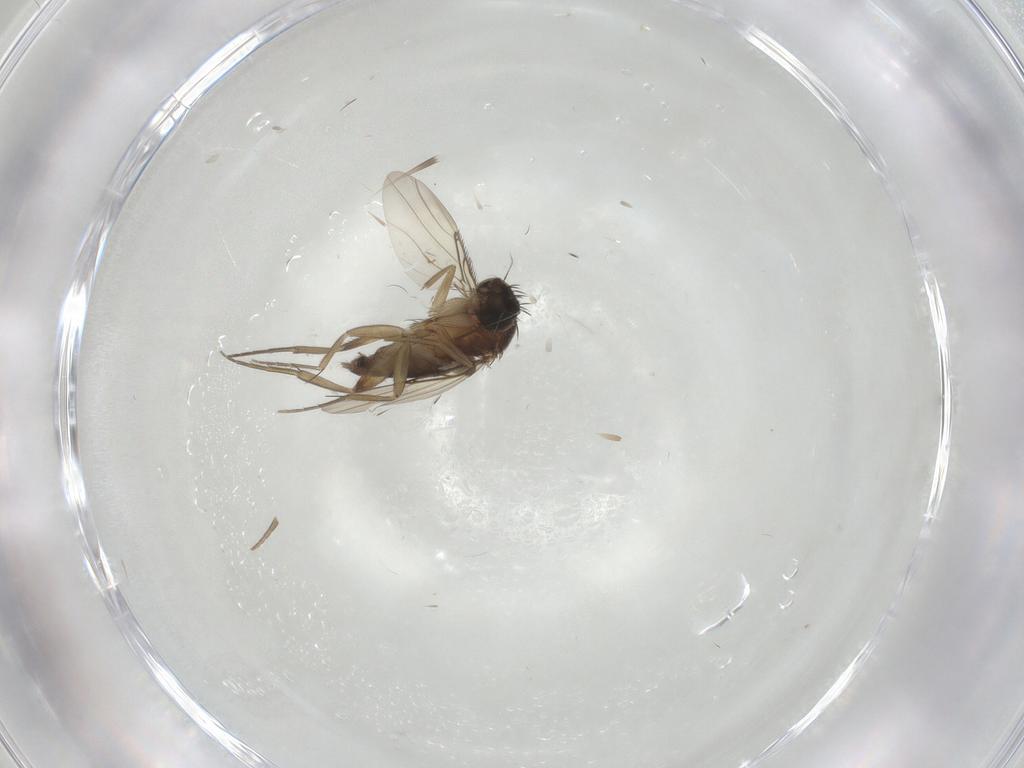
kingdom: Animalia
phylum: Arthropoda
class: Insecta
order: Diptera
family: Phoridae
